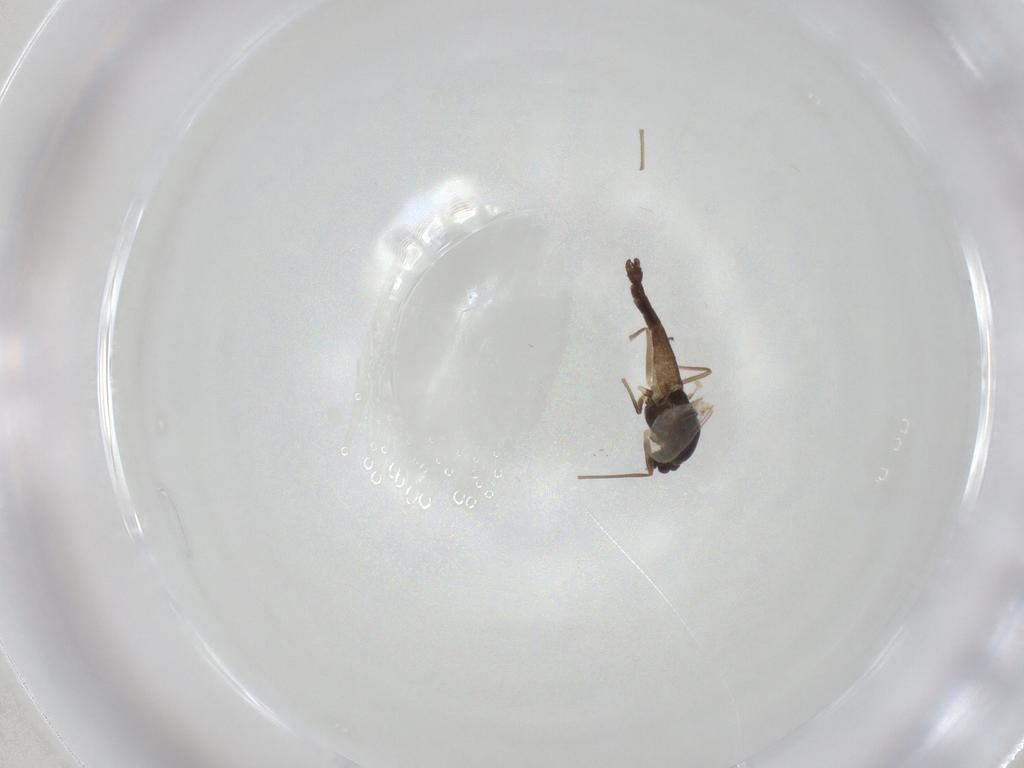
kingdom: Animalia
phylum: Arthropoda
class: Insecta
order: Diptera
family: Chironomidae
